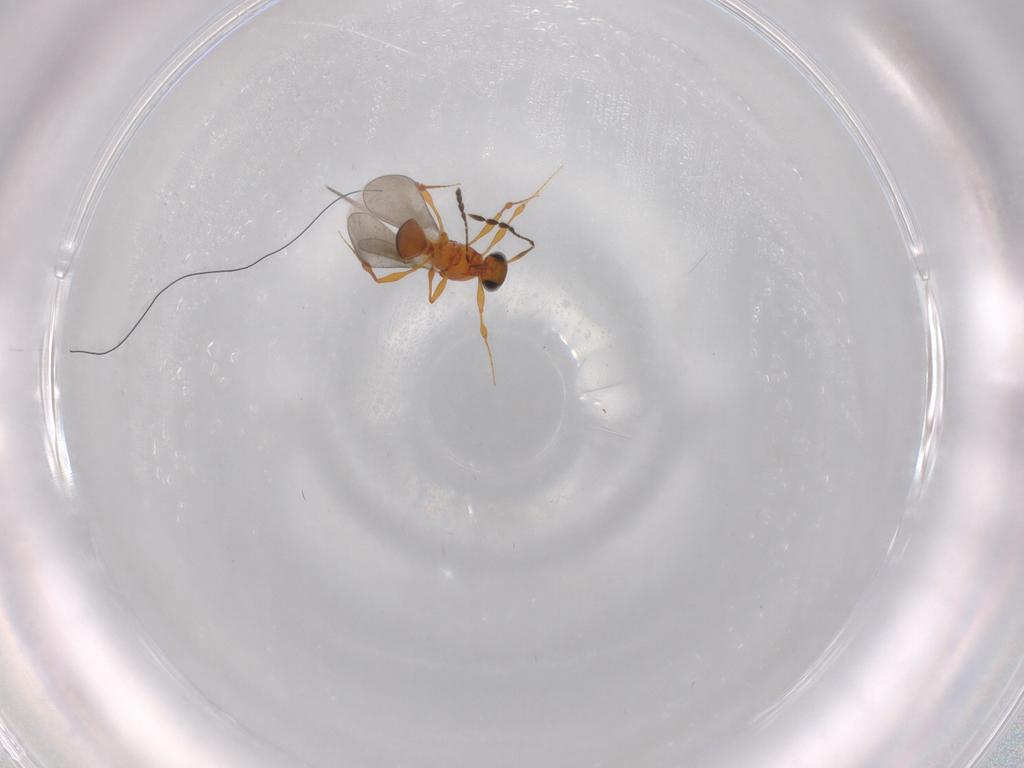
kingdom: Animalia
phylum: Arthropoda
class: Insecta
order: Hymenoptera
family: Platygastridae
